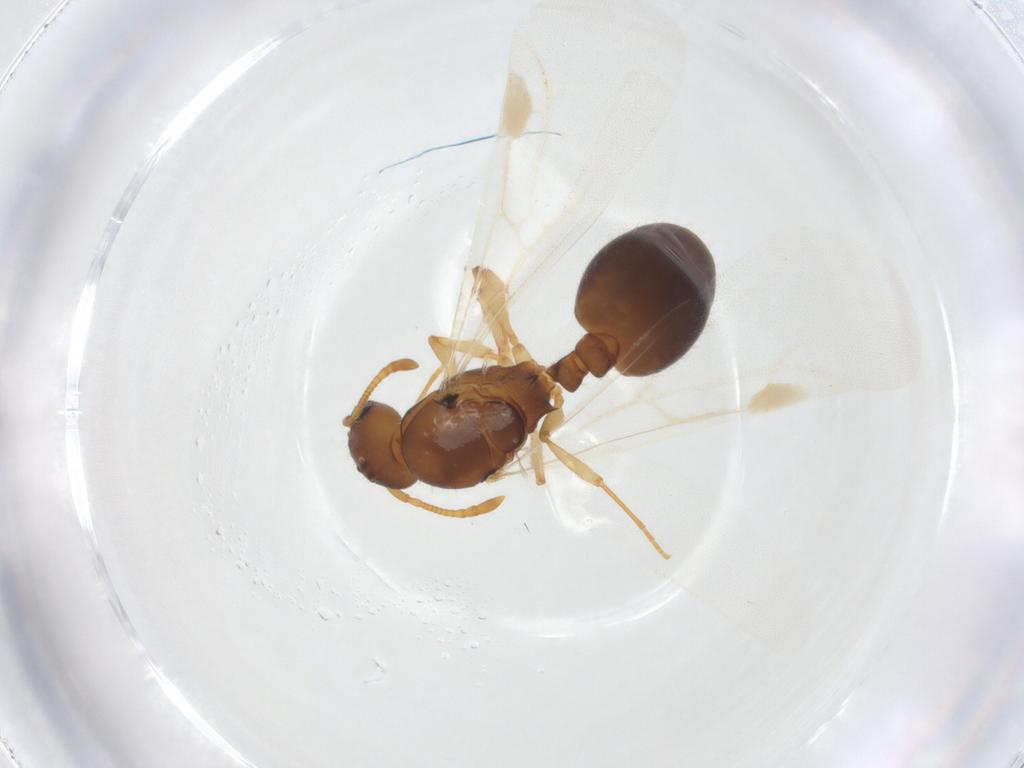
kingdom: Animalia
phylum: Arthropoda
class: Insecta
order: Hymenoptera
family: Formicidae
